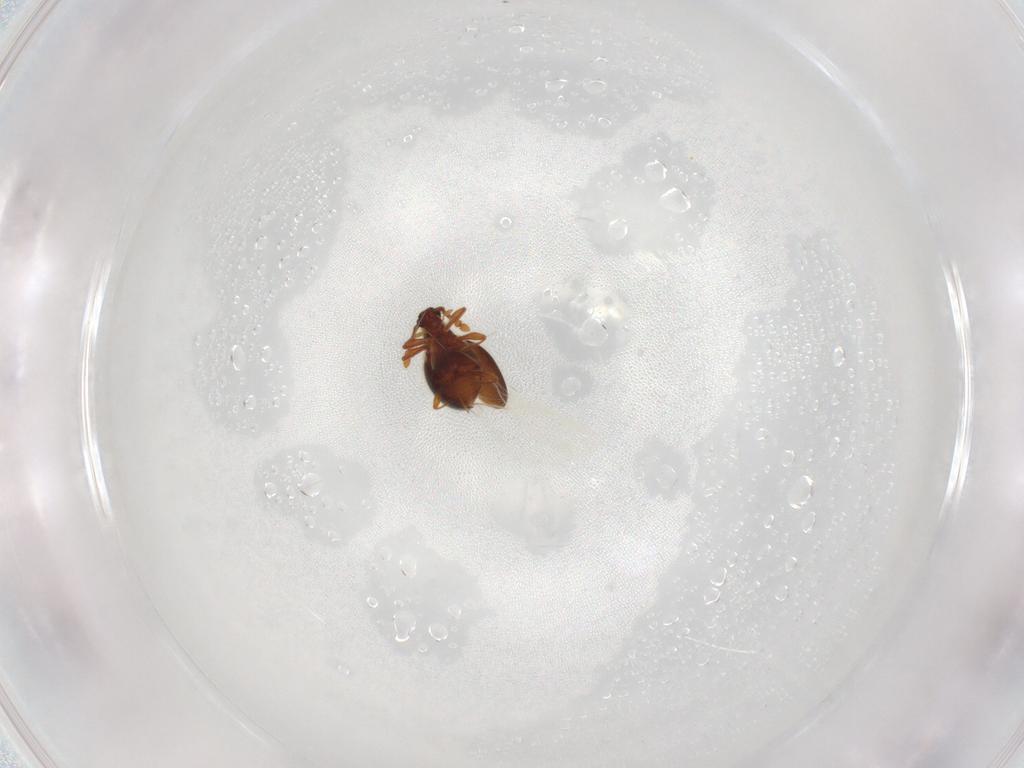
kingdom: Animalia
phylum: Arthropoda
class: Insecta
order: Coleoptera
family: Staphylinidae
